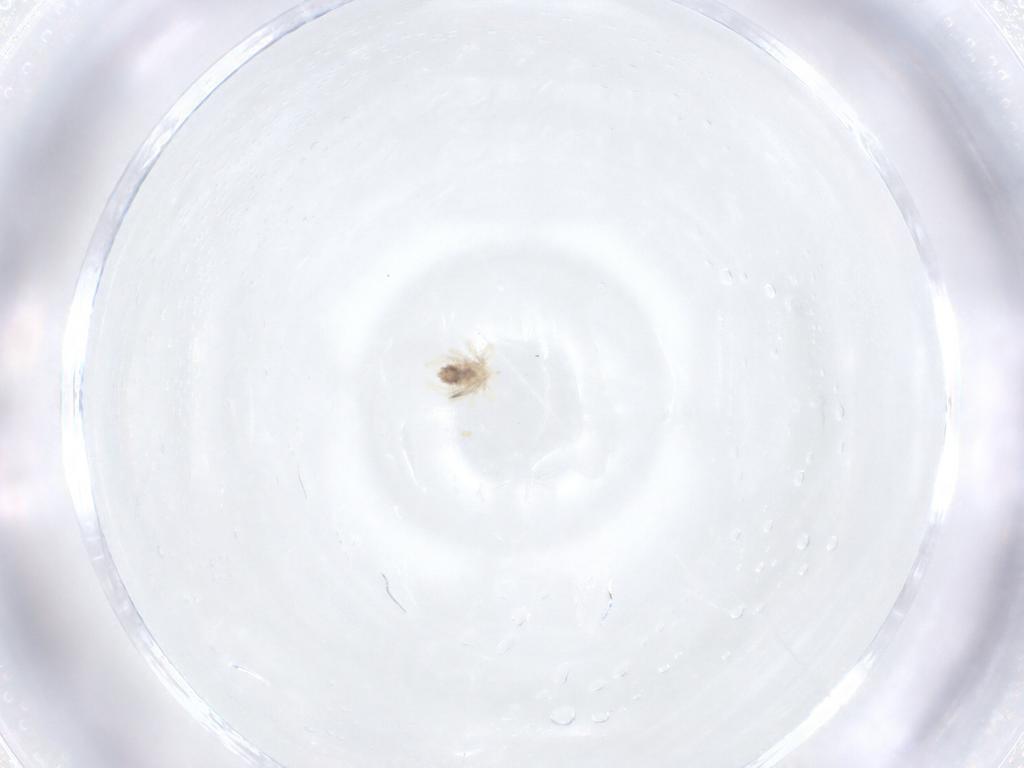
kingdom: Animalia
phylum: Arthropoda
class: Arachnida
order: Trombidiformes
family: Anystidae
